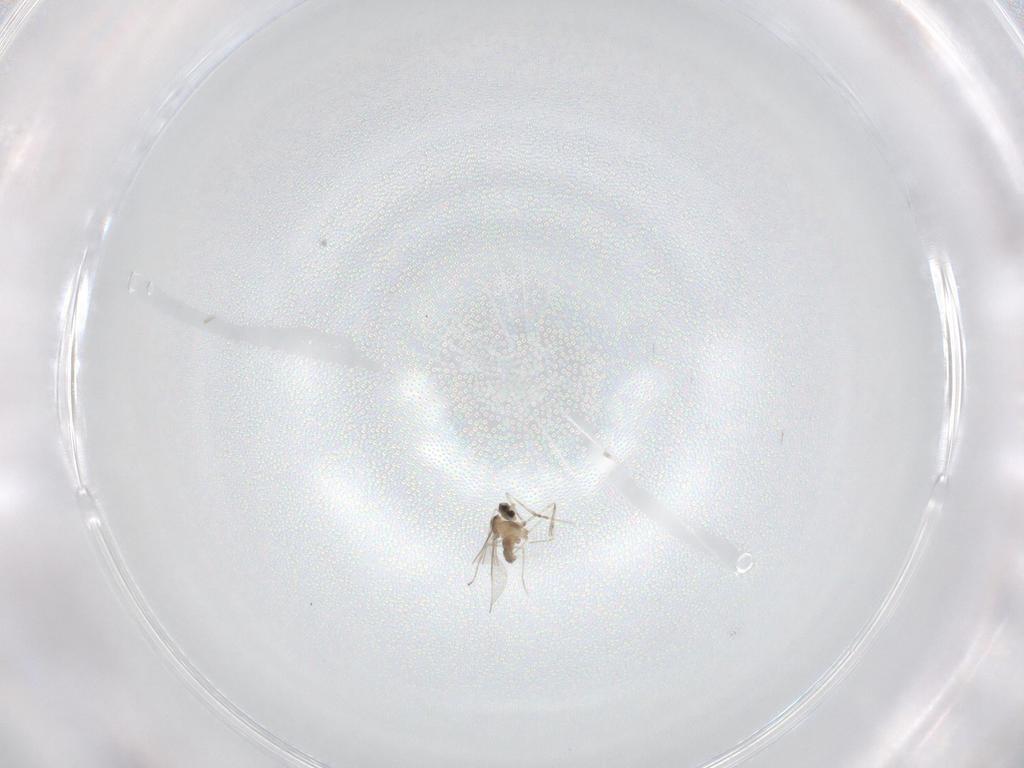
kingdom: Animalia
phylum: Arthropoda
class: Insecta
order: Diptera
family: Cecidomyiidae
